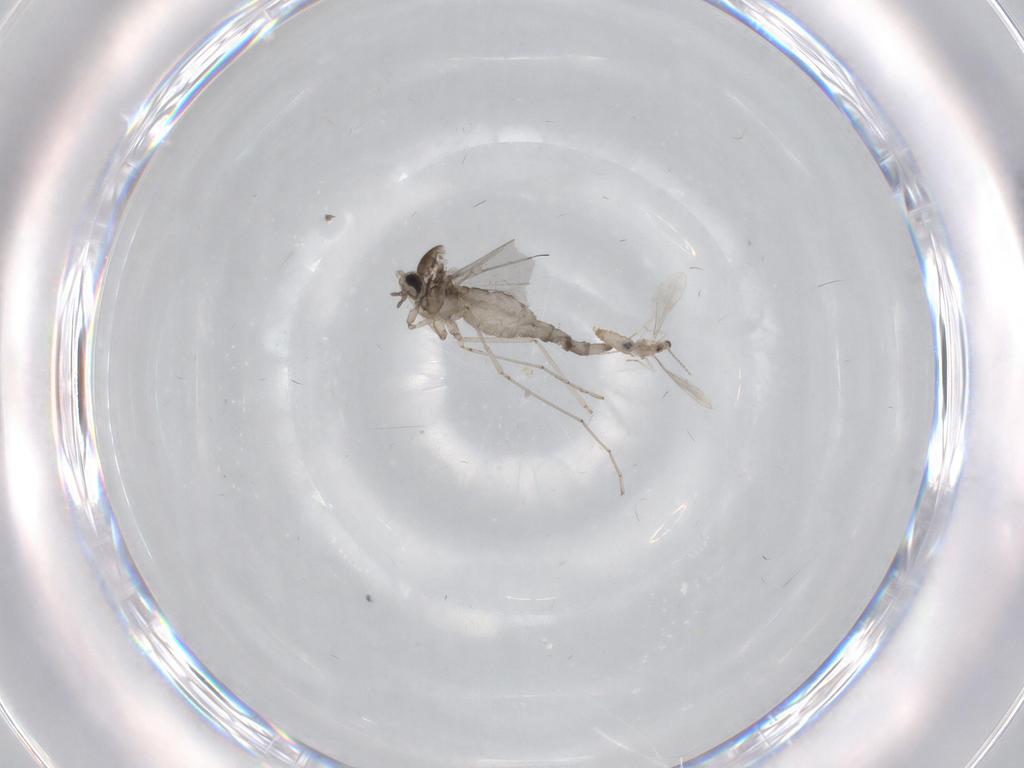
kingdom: Animalia
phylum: Arthropoda
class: Insecta
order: Diptera
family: Cecidomyiidae
